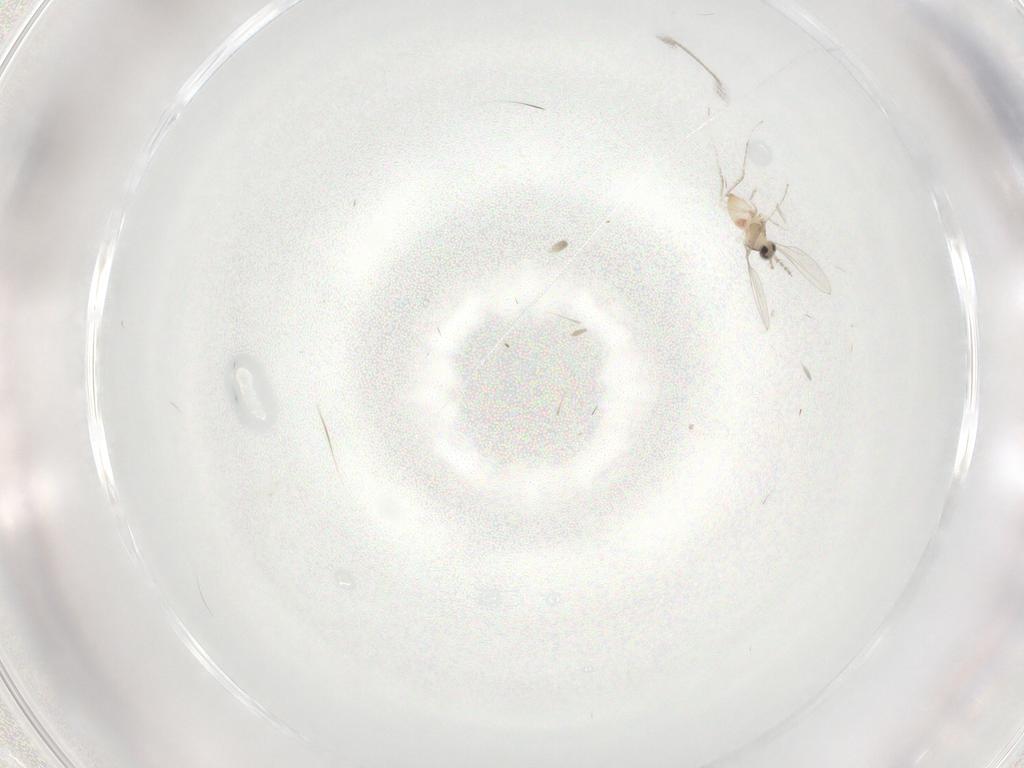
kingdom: Animalia
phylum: Arthropoda
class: Insecta
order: Diptera
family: Cecidomyiidae
